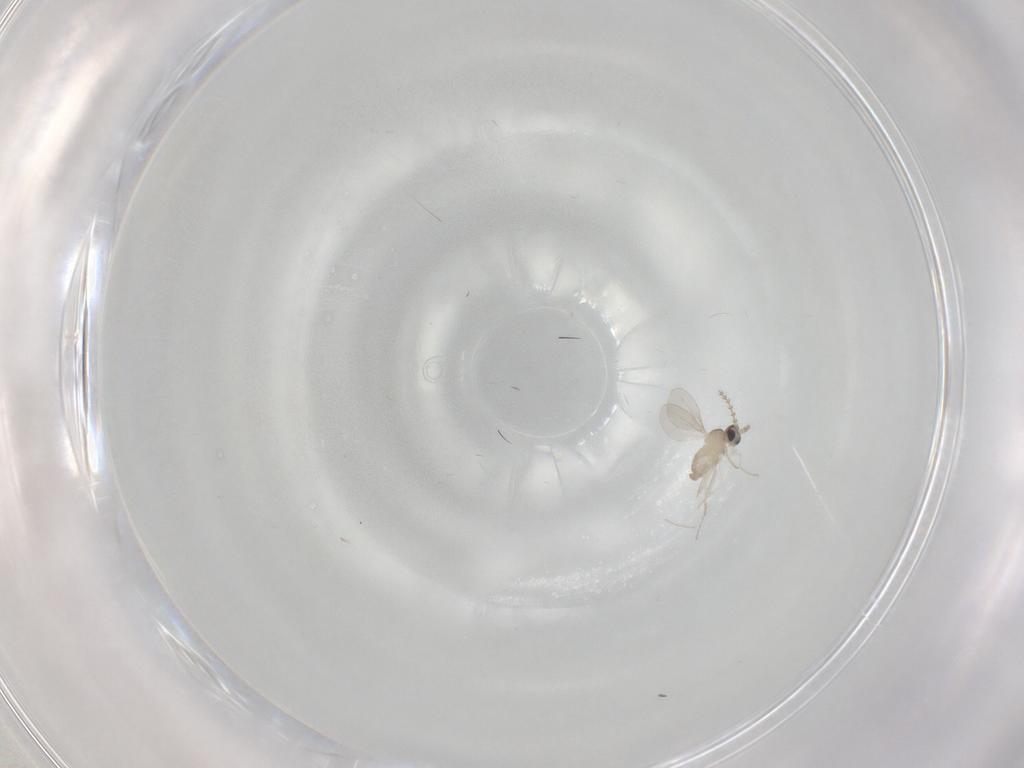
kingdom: Animalia
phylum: Arthropoda
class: Insecta
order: Diptera
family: Phoridae
